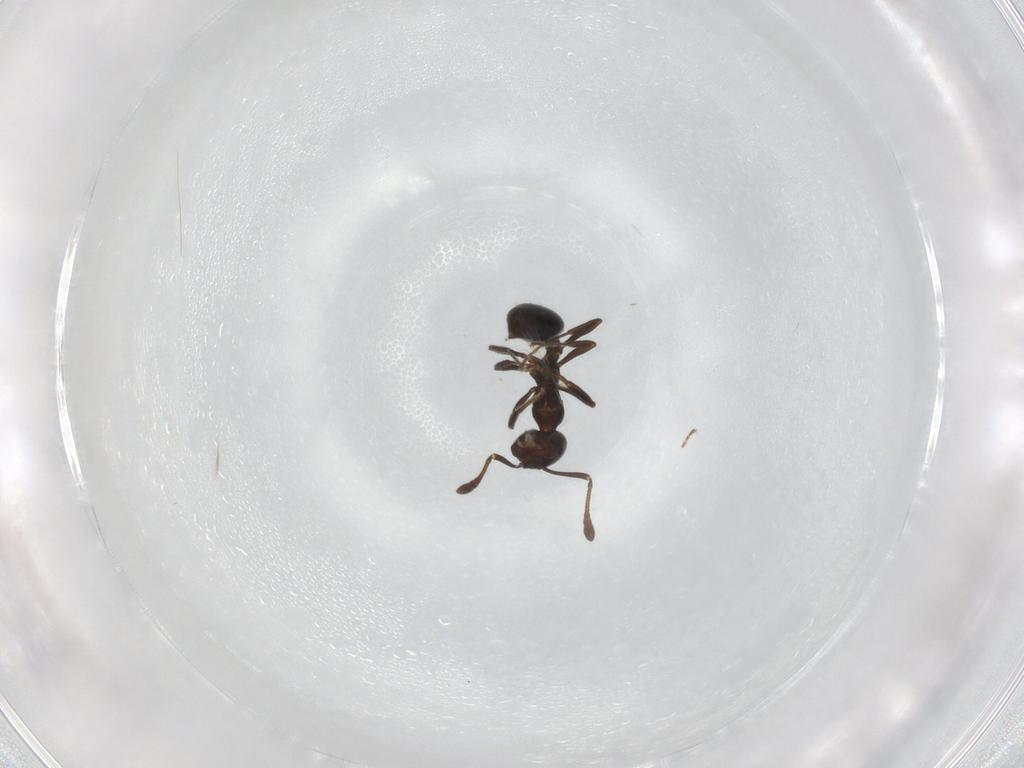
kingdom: Animalia
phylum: Arthropoda
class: Insecta
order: Hymenoptera
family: Formicidae
